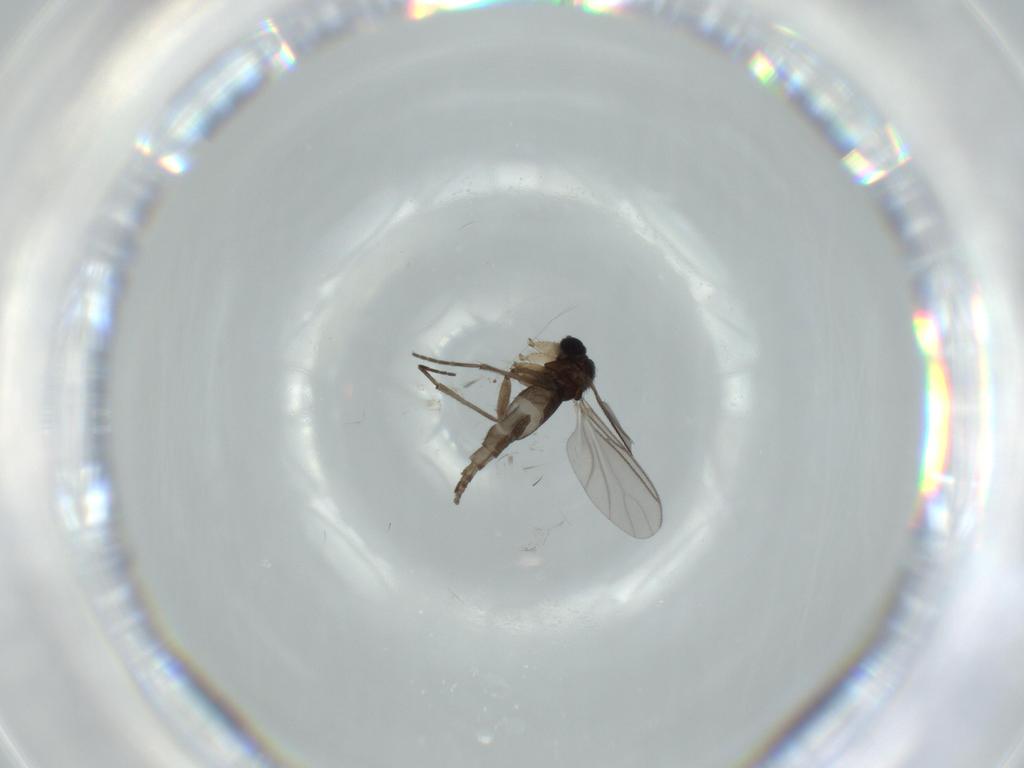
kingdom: Animalia
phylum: Arthropoda
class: Insecta
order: Diptera
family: Sciaridae
